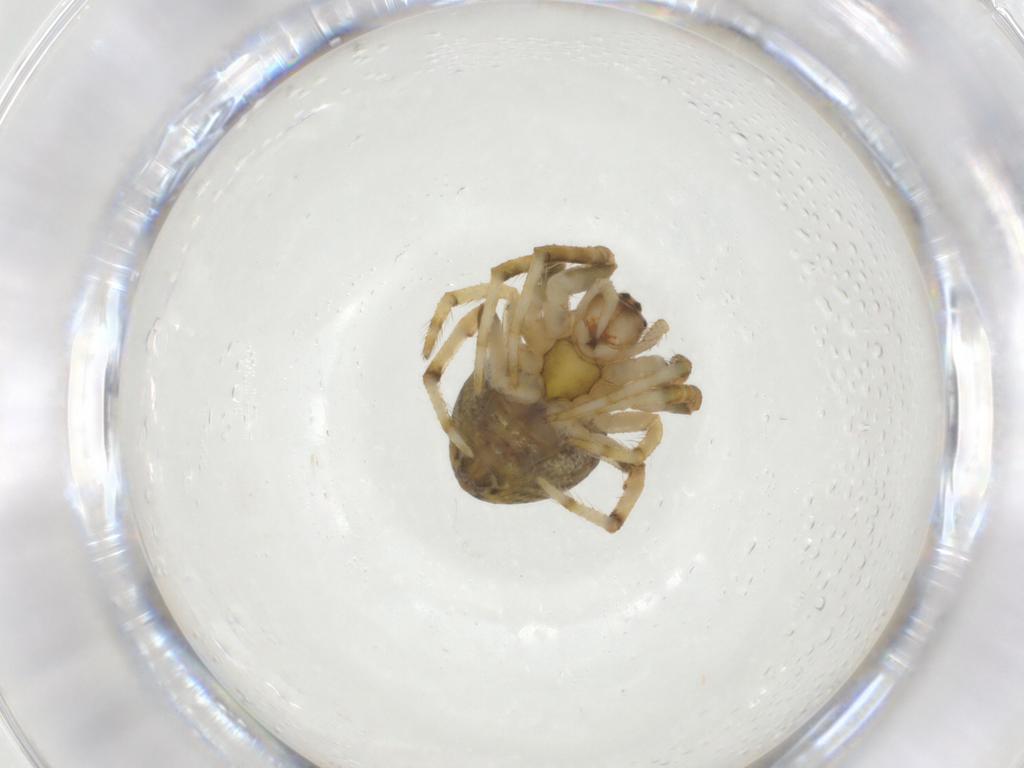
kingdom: Animalia
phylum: Arthropoda
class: Arachnida
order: Araneae
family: Araneidae
